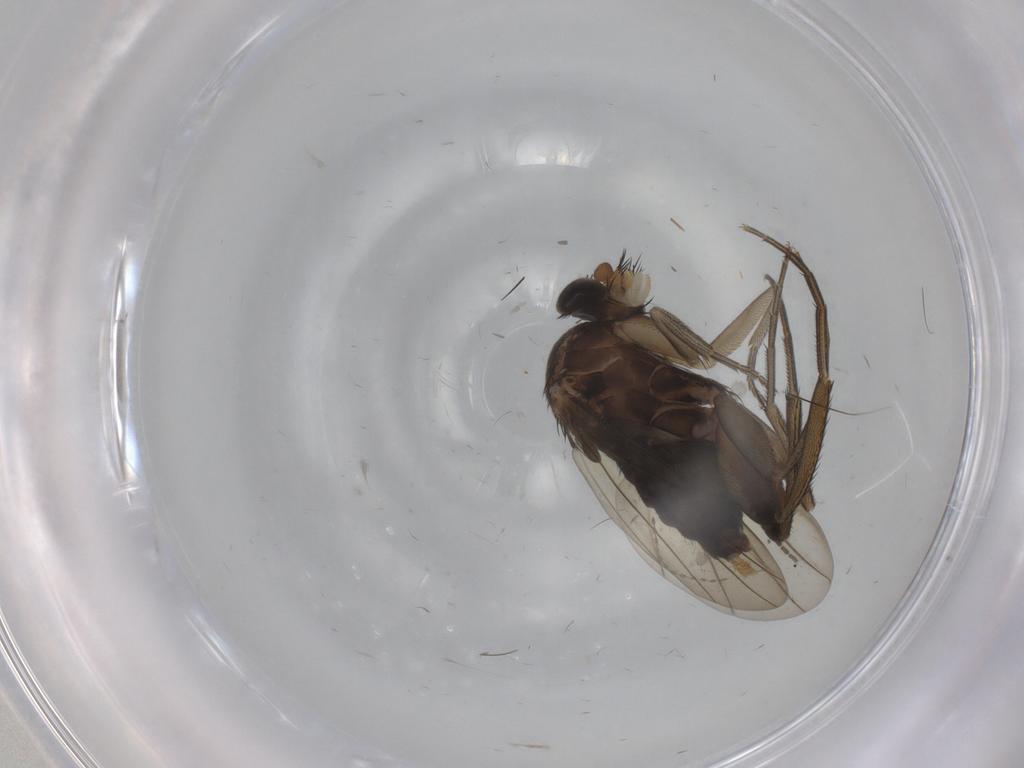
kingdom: Animalia
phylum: Arthropoda
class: Insecta
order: Diptera
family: Phoridae
